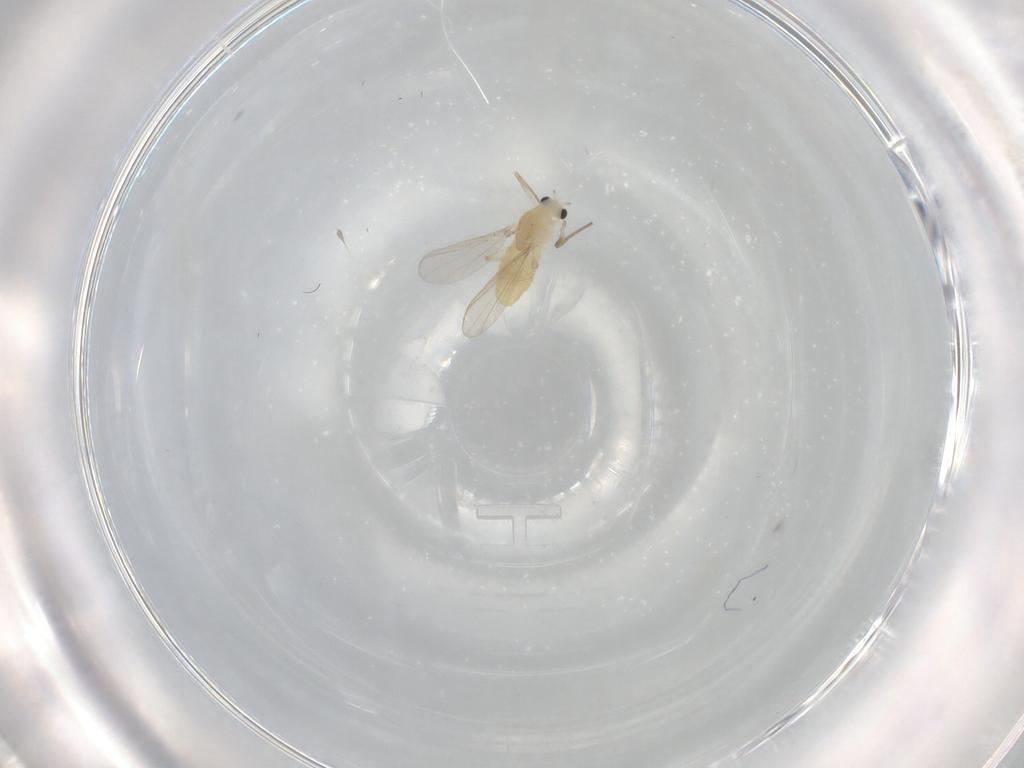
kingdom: Animalia
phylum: Arthropoda
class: Insecta
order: Diptera
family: Chironomidae
